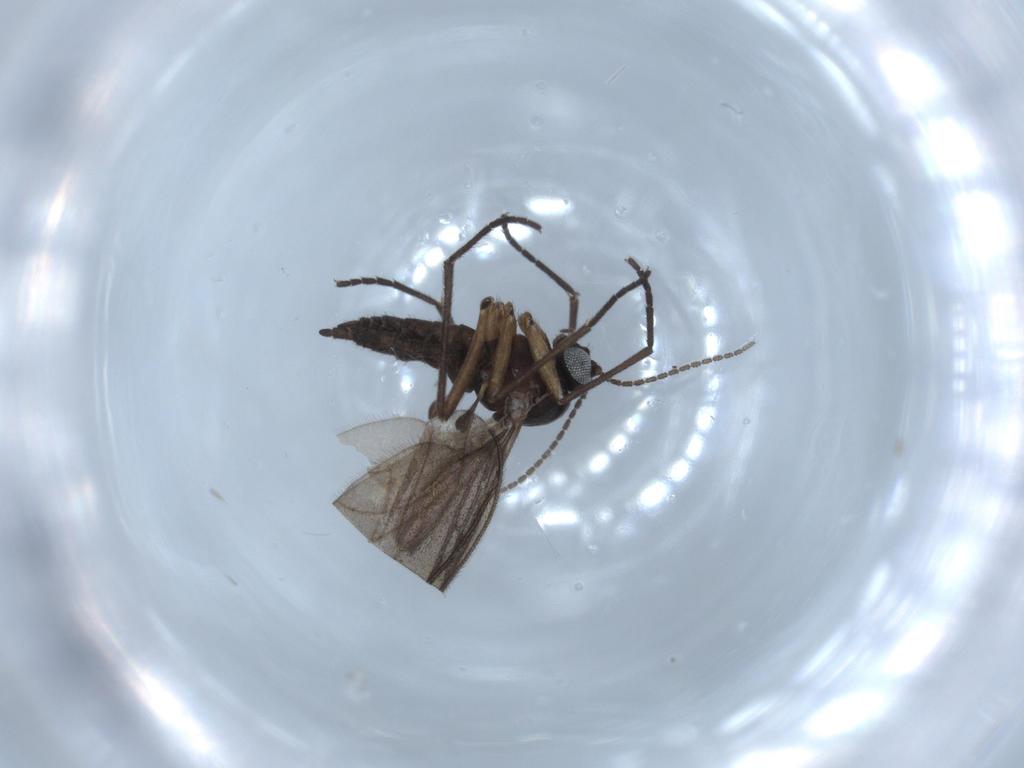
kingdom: Animalia
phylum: Arthropoda
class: Insecta
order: Diptera
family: Sciaridae
